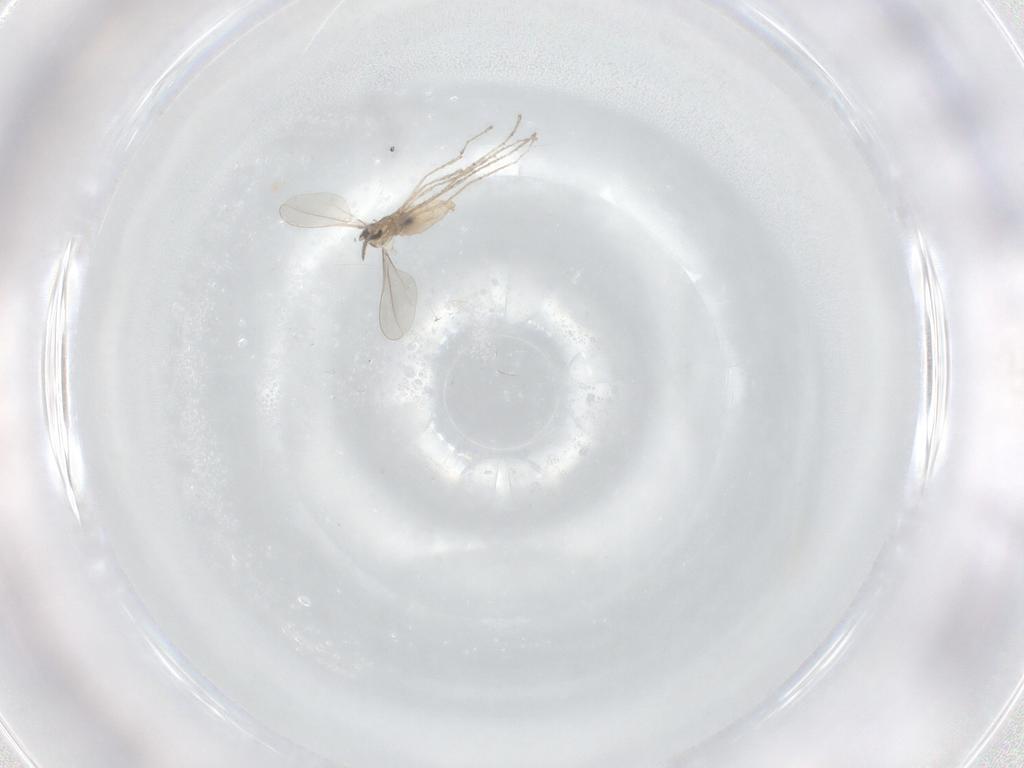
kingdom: Animalia
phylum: Arthropoda
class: Insecta
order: Diptera
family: Cecidomyiidae
